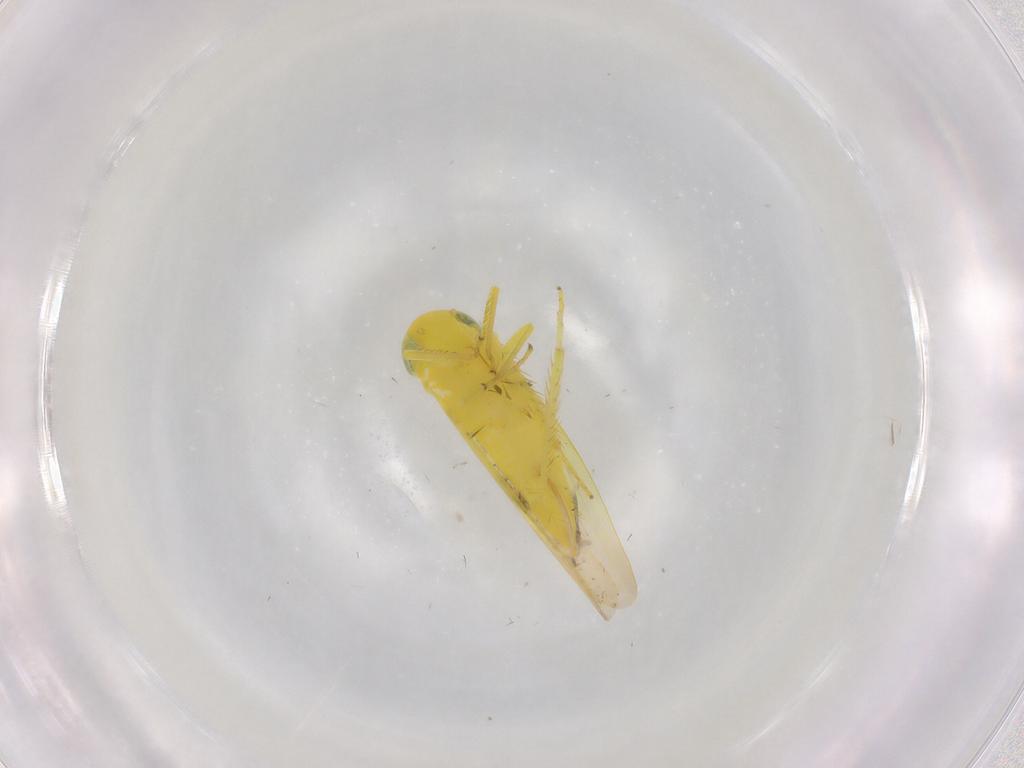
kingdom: Animalia
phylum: Arthropoda
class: Insecta
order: Hemiptera
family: Cicadellidae
